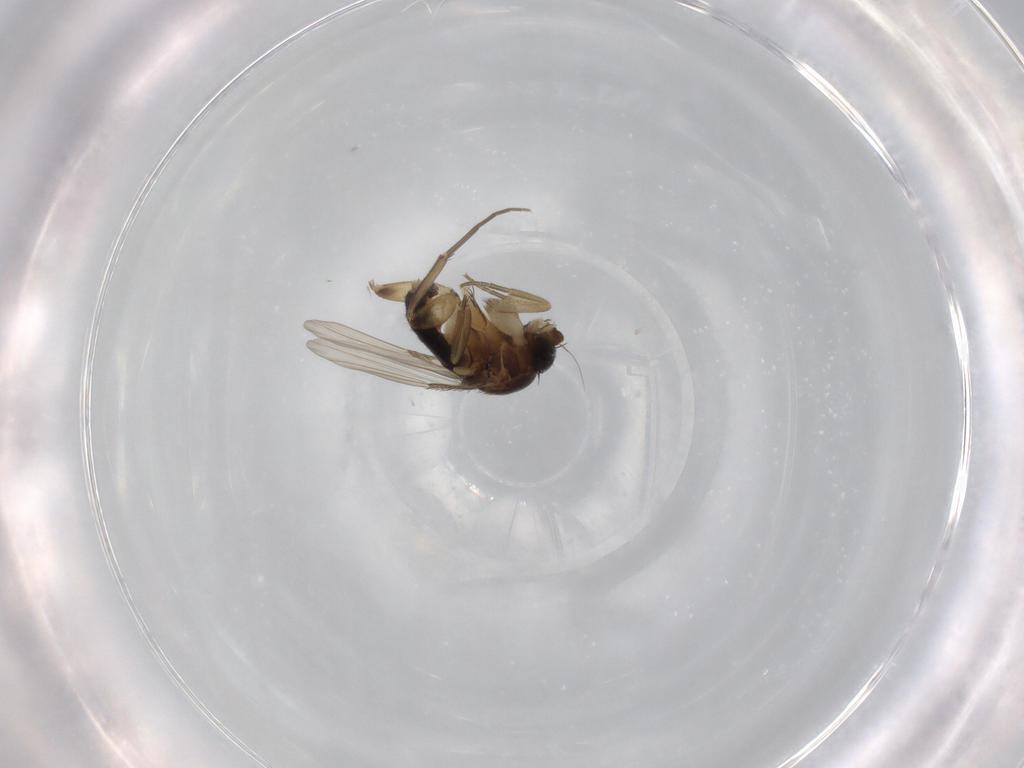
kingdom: Animalia
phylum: Arthropoda
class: Insecta
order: Diptera
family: Phoridae
